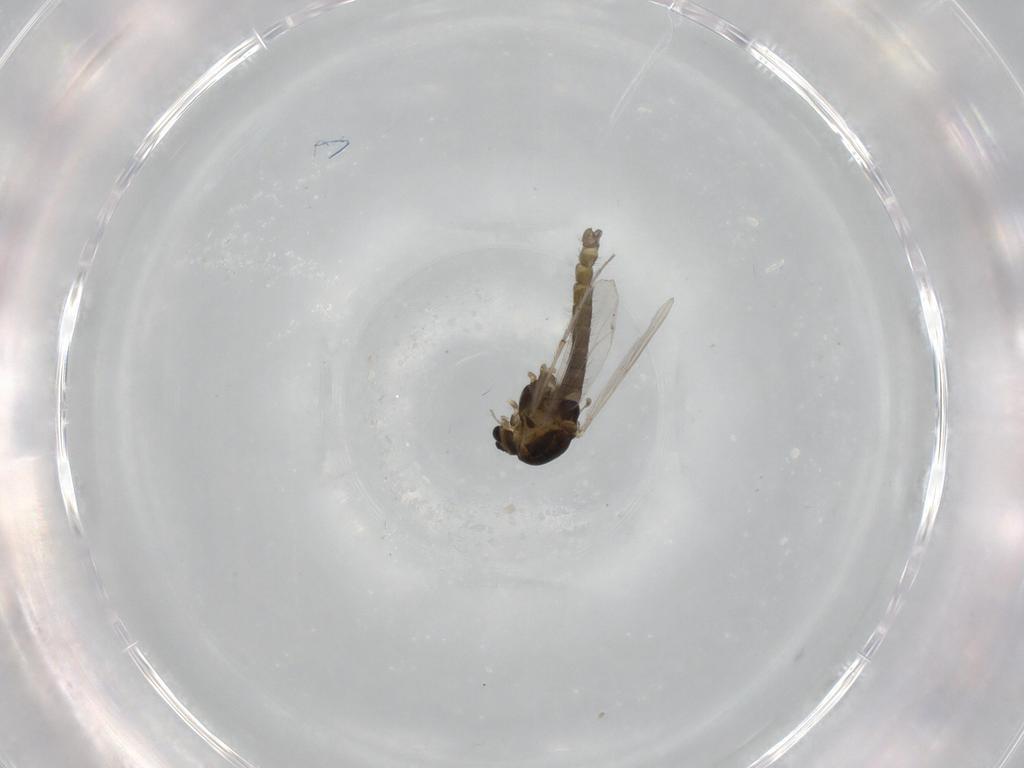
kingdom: Animalia
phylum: Arthropoda
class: Insecta
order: Diptera
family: Chironomidae
